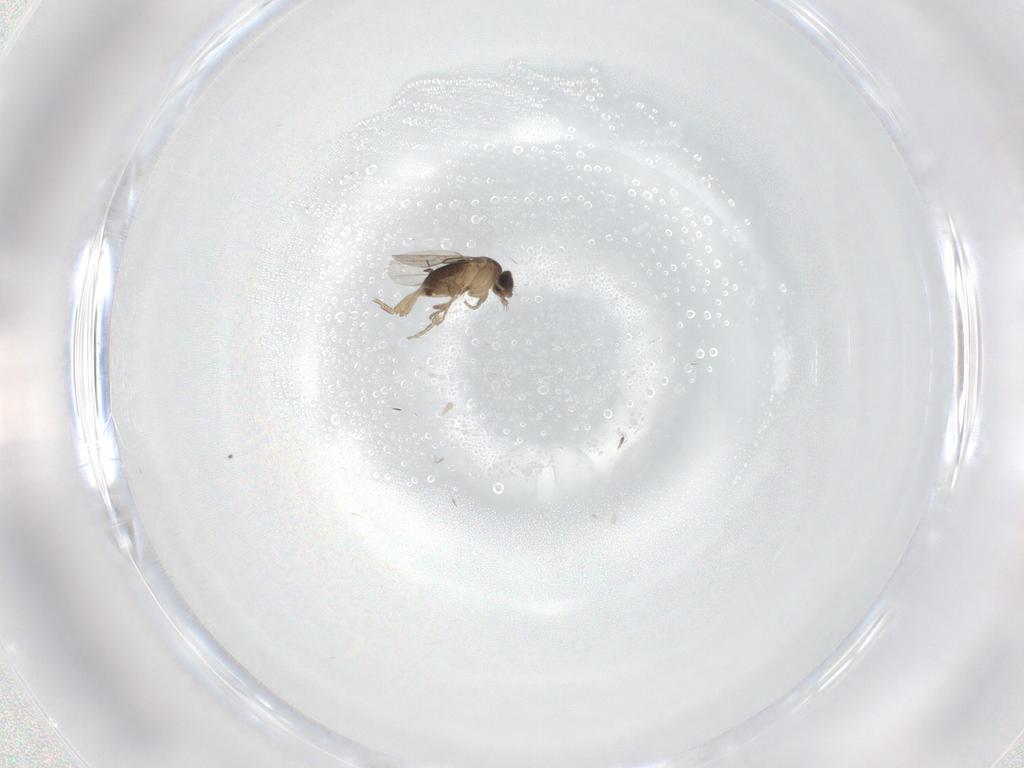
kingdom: Animalia
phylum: Arthropoda
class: Insecta
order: Diptera
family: Phoridae
